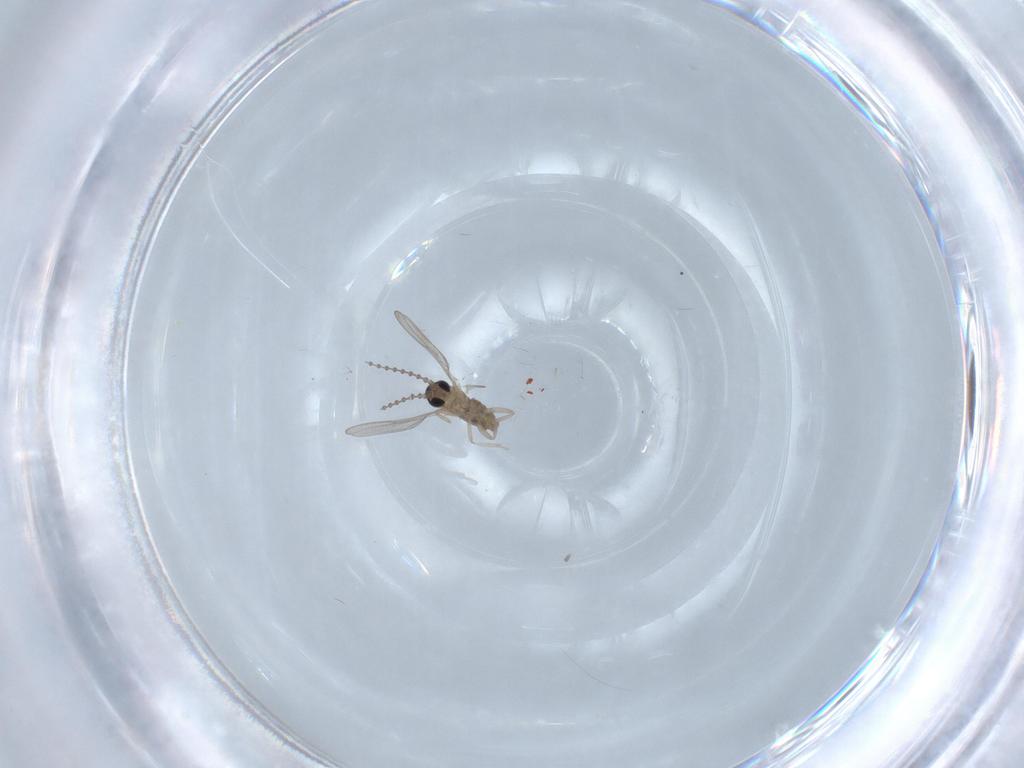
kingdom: Animalia
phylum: Arthropoda
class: Insecta
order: Diptera
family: Cecidomyiidae
